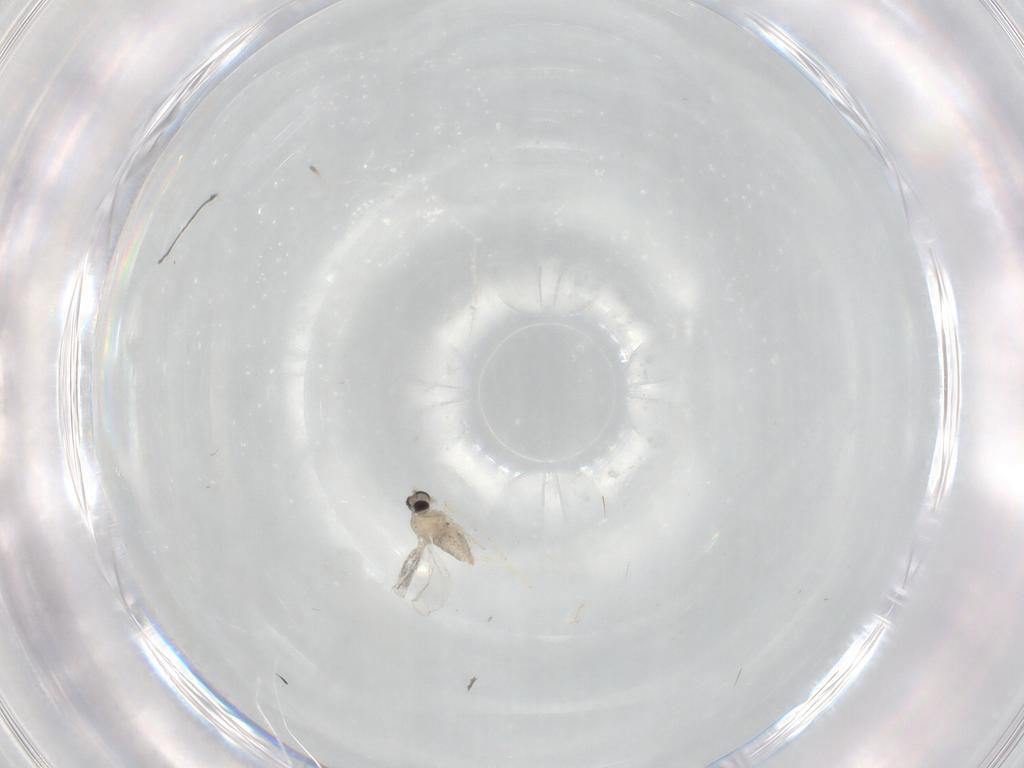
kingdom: Animalia
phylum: Arthropoda
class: Insecta
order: Diptera
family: Cecidomyiidae
